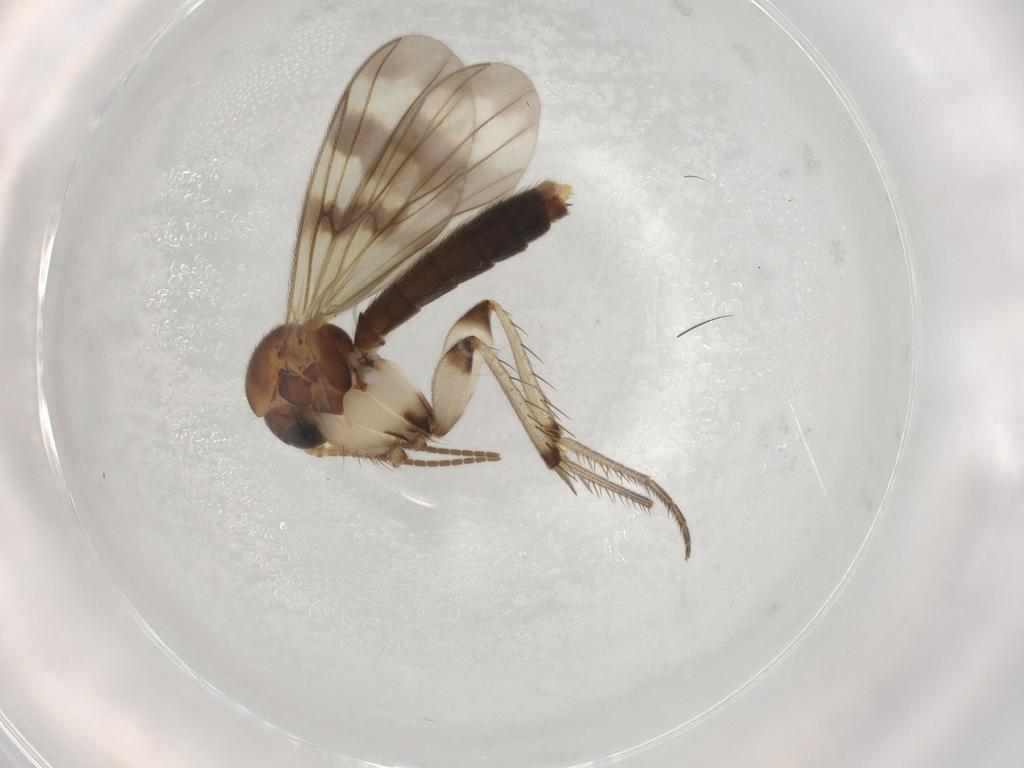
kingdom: Animalia
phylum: Arthropoda
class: Insecta
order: Diptera
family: Mycetophilidae
